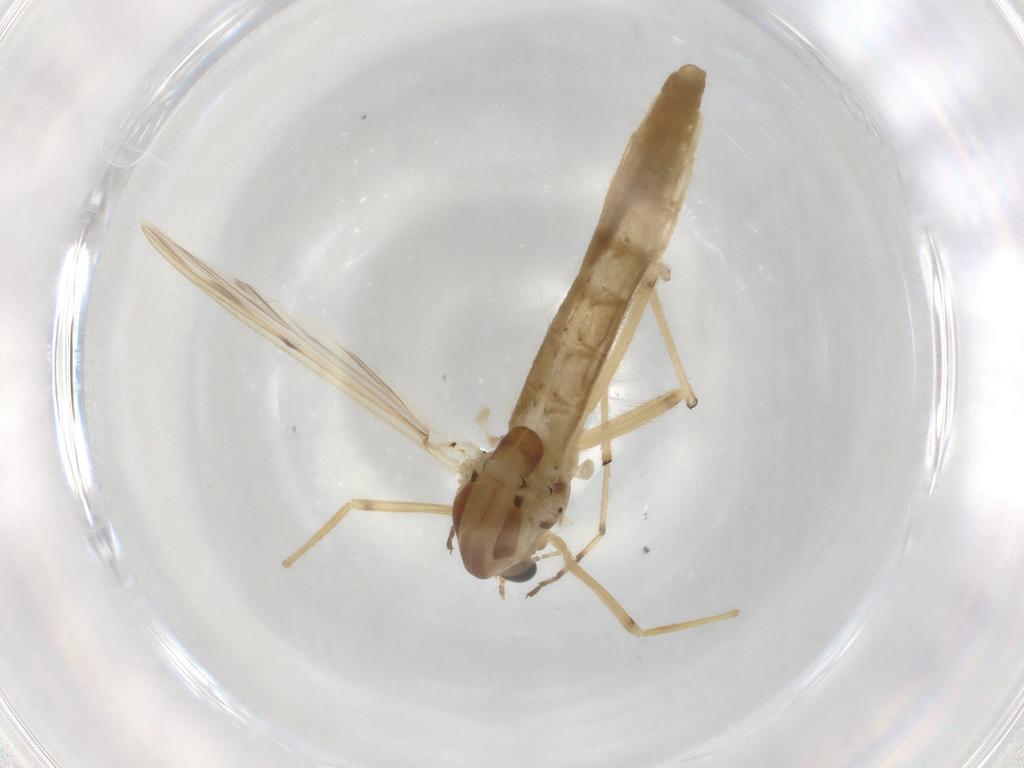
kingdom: Animalia
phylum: Arthropoda
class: Insecta
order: Diptera
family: Chironomidae
